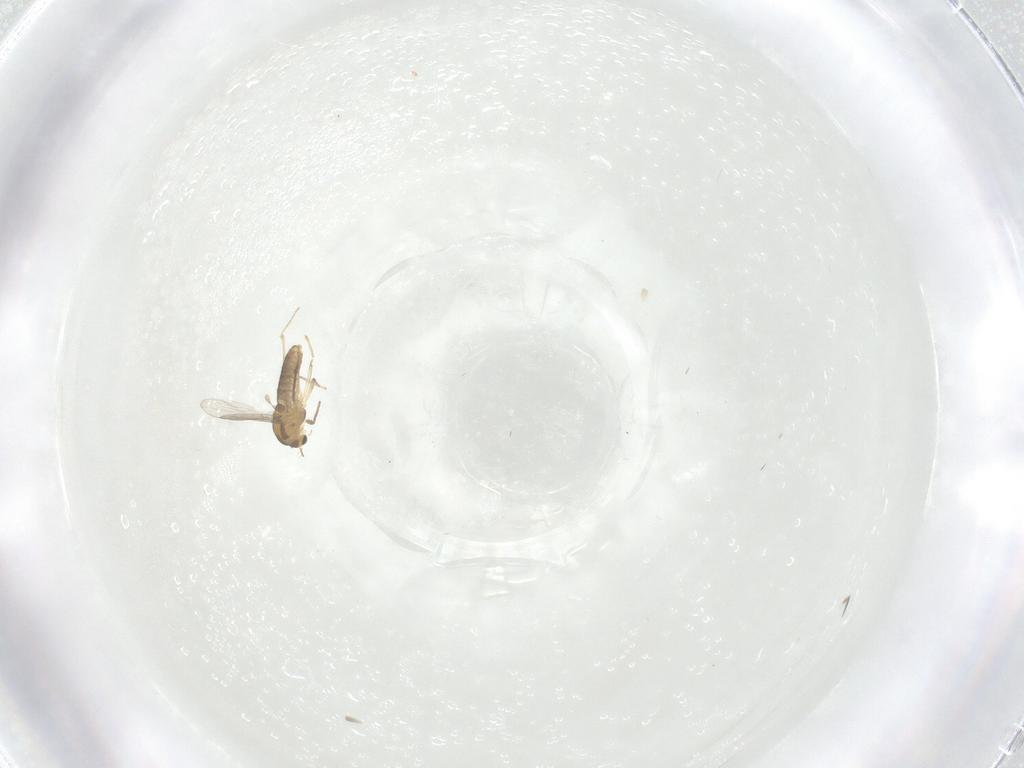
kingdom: Animalia
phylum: Arthropoda
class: Insecta
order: Diptera
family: Chironomidae
